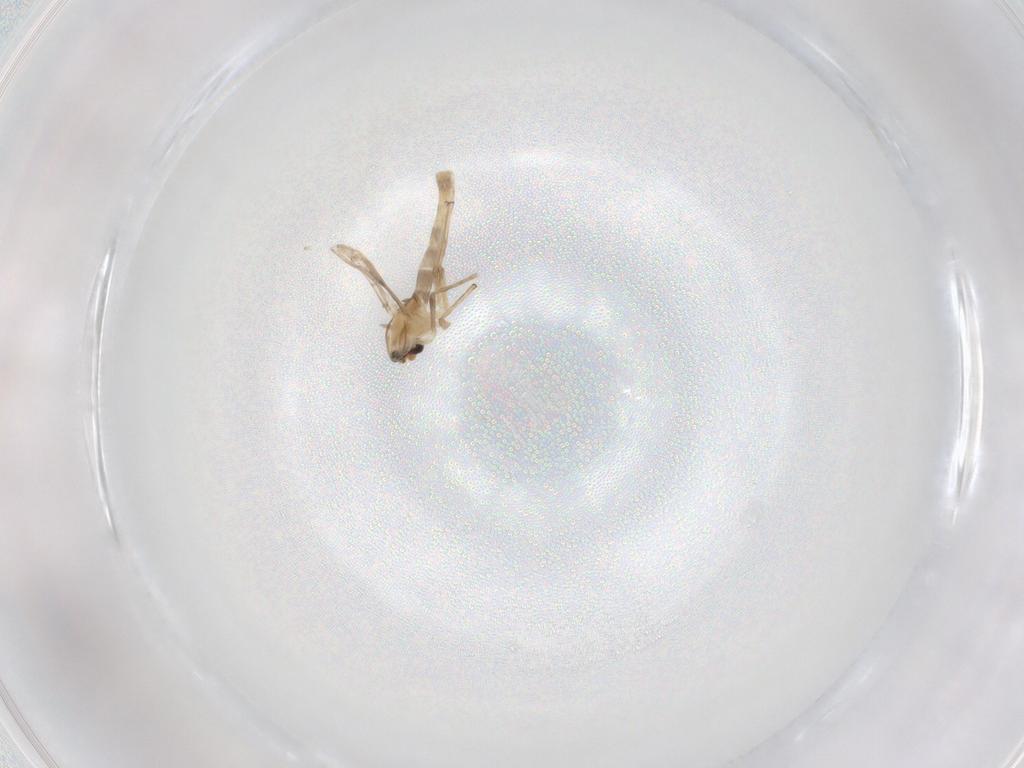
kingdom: Animalia
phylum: Arthropoda
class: Insecta
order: Diptera
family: Chironomidae
